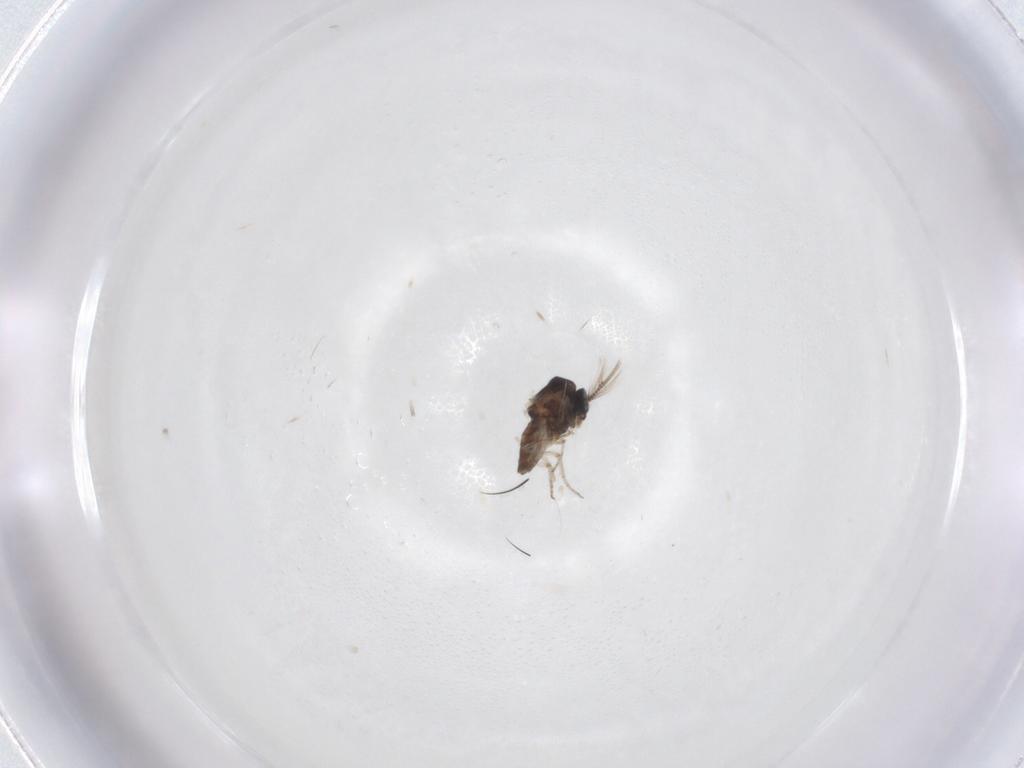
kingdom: Animalia
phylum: Arthropoda
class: Insecta
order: Diptera
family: Ceratopogonidae
